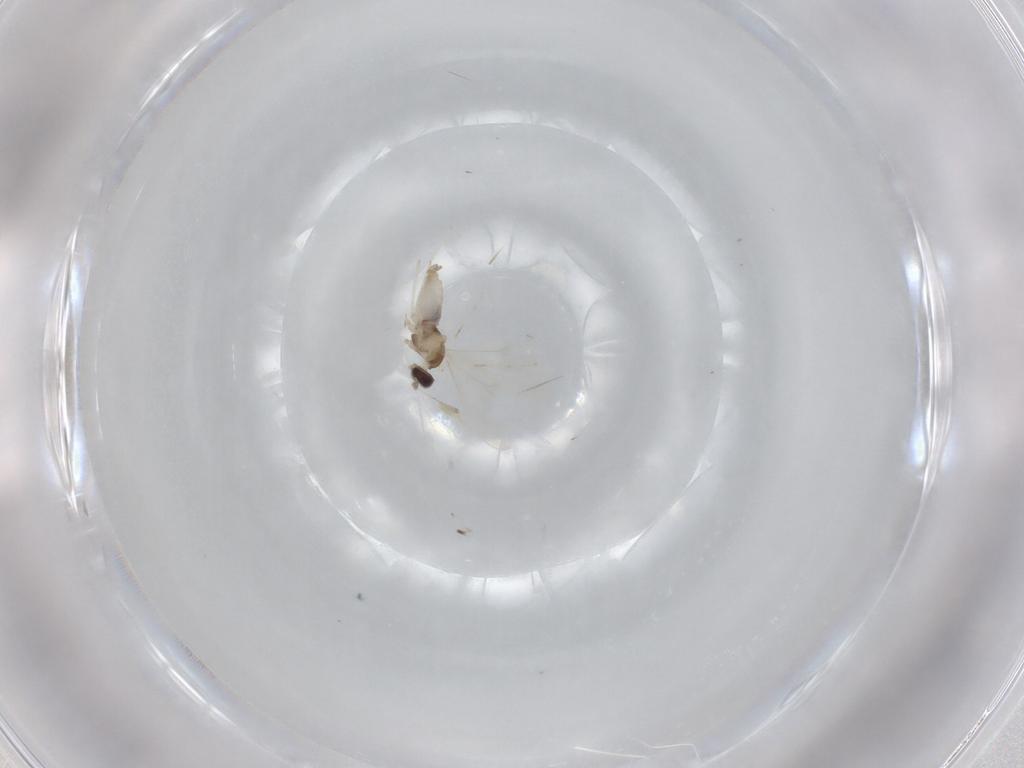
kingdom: Animalia
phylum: Arthropoda
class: Insecta
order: Diptera
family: Cecidomyiidae
